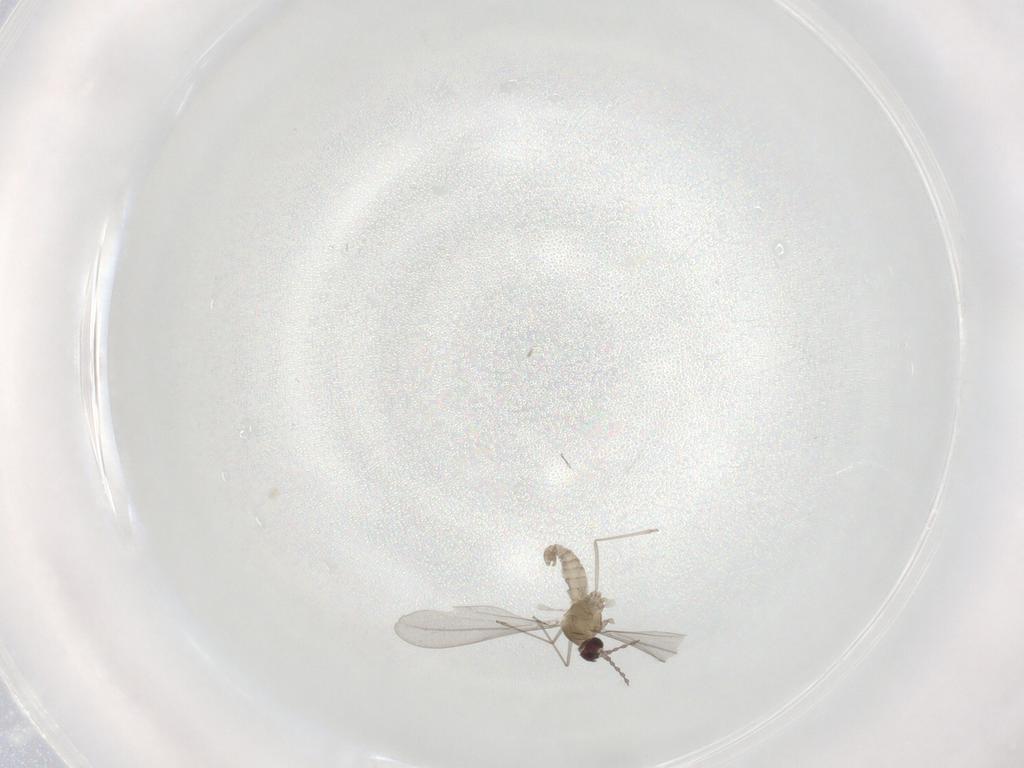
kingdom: Animalia
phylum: Arthropoda
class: Insecta
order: Diptera
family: Cecidomyiidae
